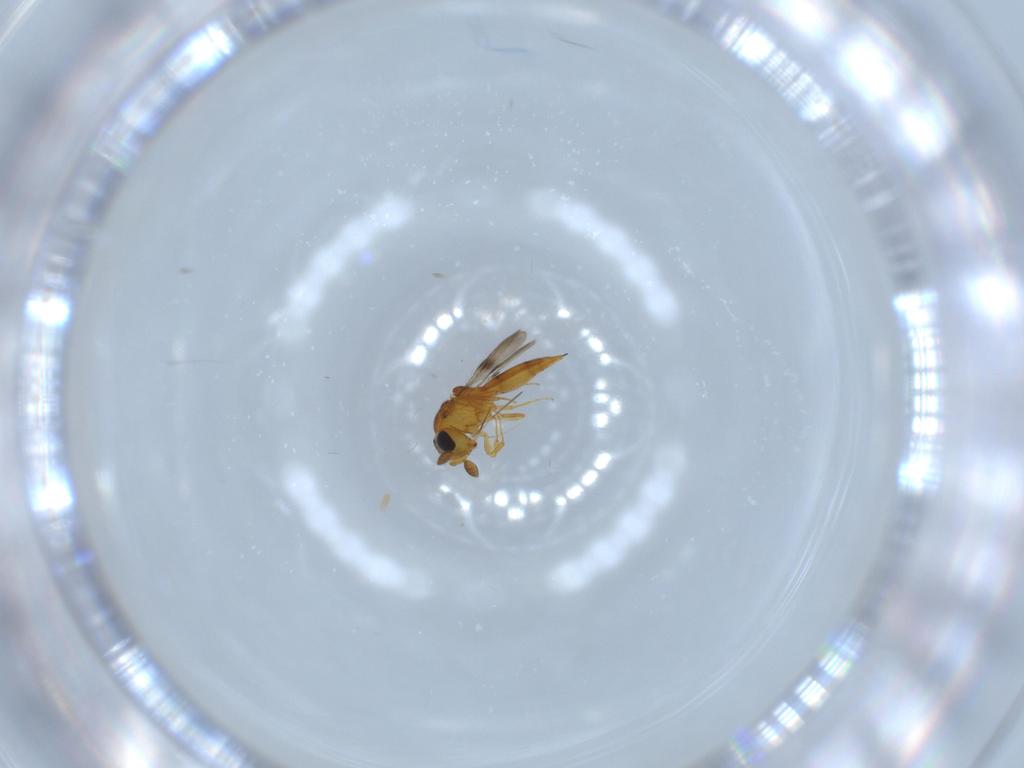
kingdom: Animalia
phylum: Arthropoda
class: Insecta
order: Hymenoptera
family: Scelionidae
